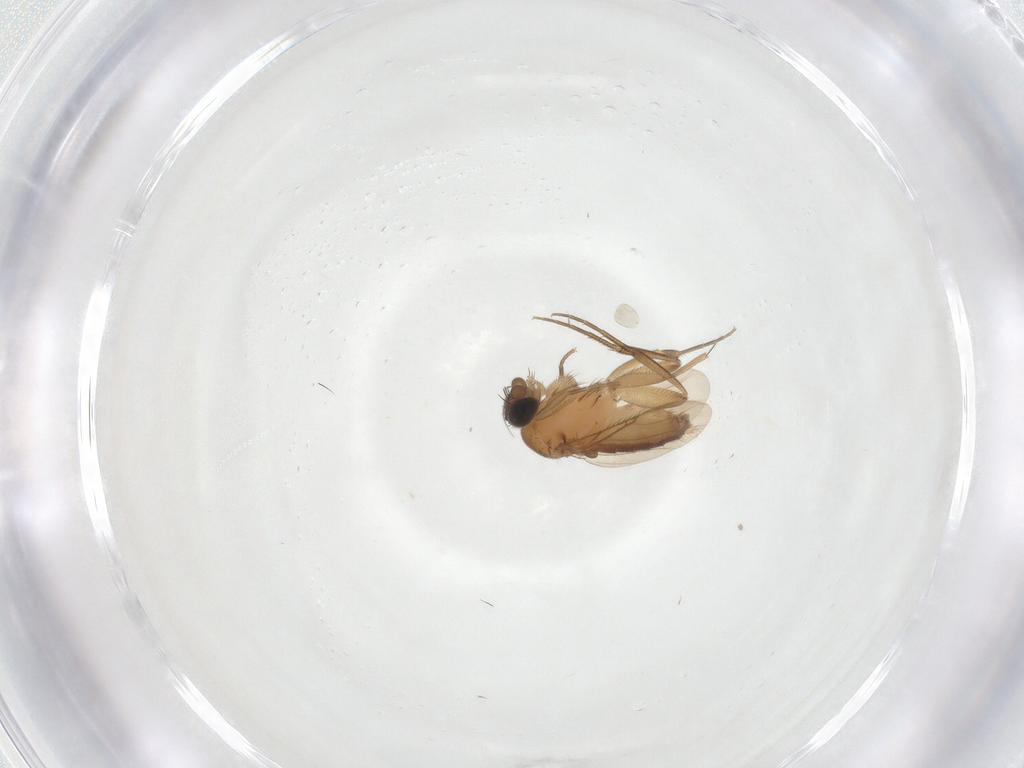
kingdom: Animalia
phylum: Arthropoda
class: Insecta
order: Diptera
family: Phoridae
